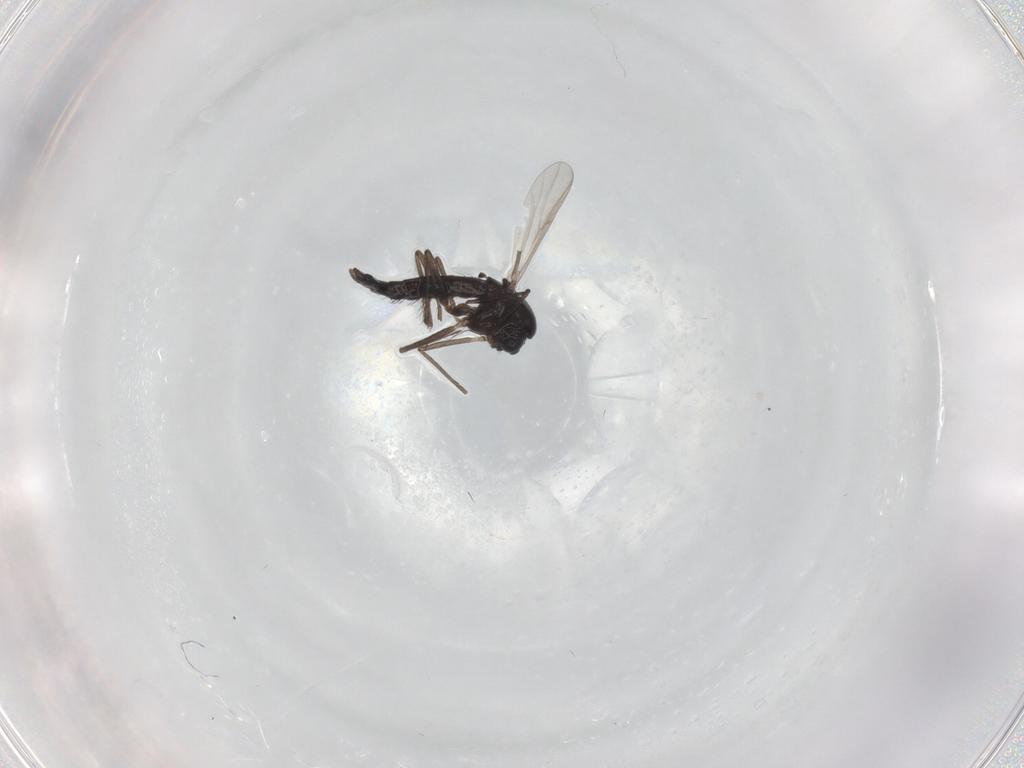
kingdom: Animalia
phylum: Arthropoda
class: Insecta
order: Diptera
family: Chironomidae
